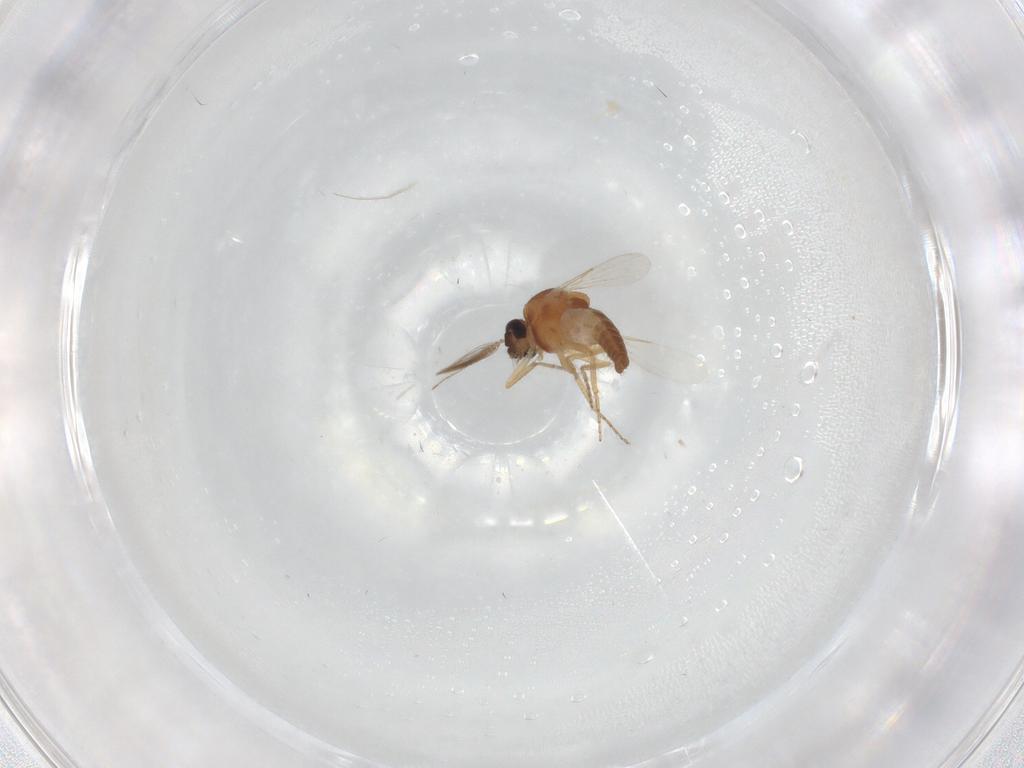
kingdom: Animalia
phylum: Arthropoda
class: Insecta
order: Diptera
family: Ceratopogonidae
